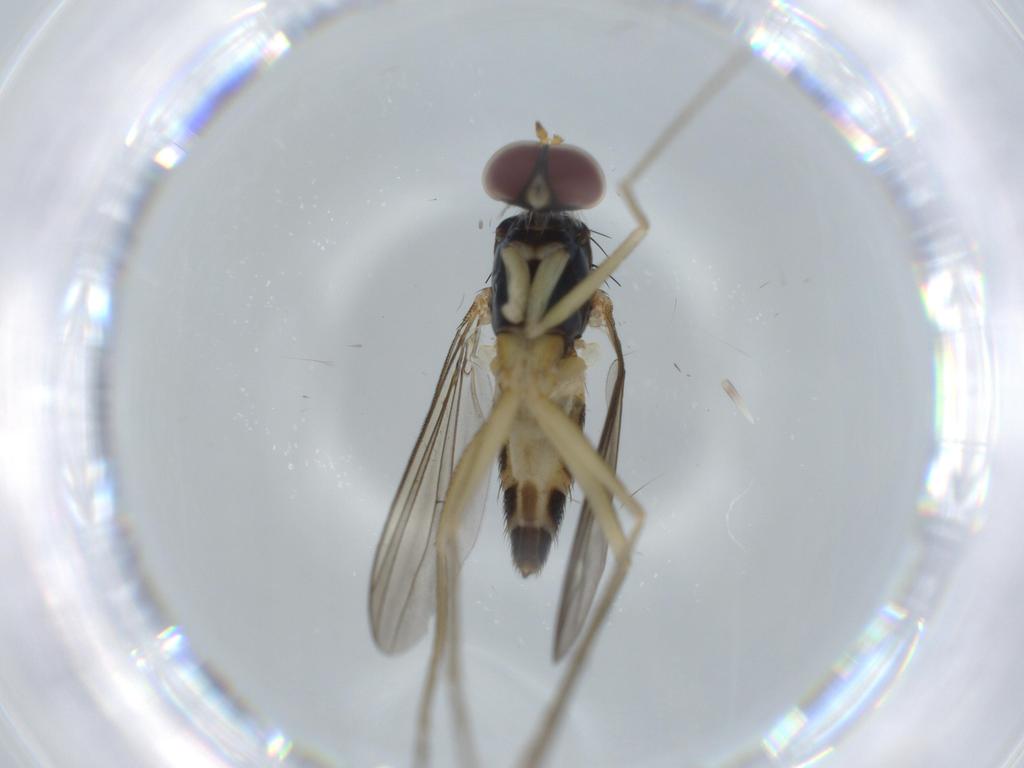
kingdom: Animalia
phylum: Arthropoda
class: Insecta
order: Diptera
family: Dolichopodidae
